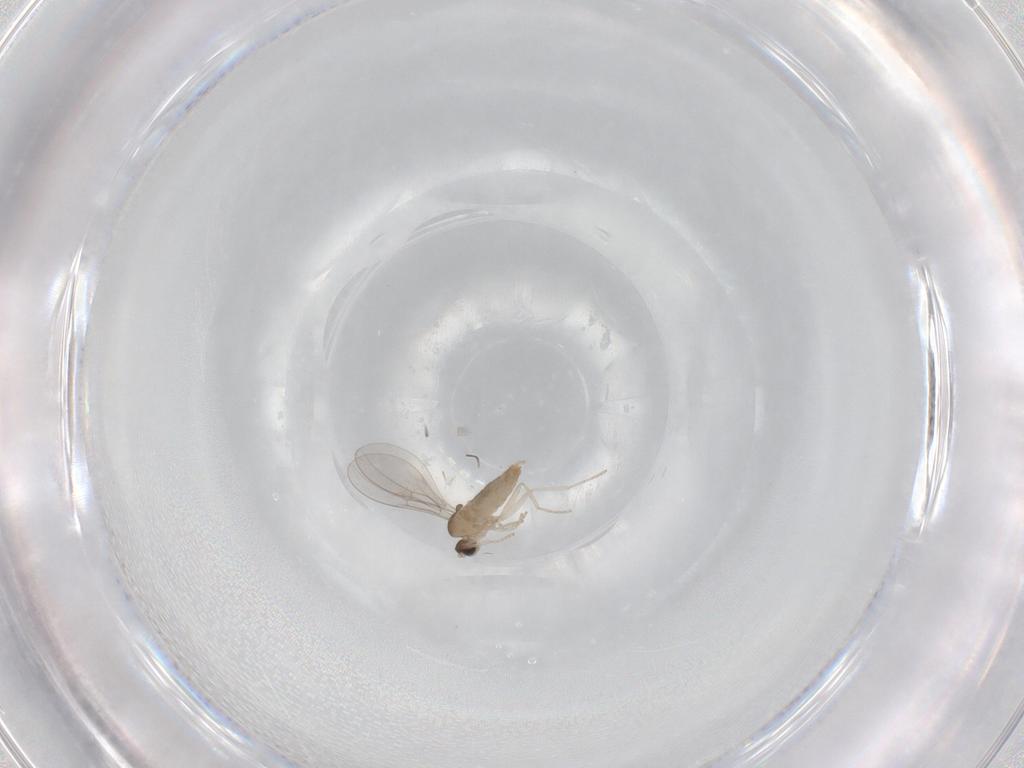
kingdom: Animalia
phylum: Arthropoda
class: Insecta
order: Diptera
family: Cecidomyiidae
